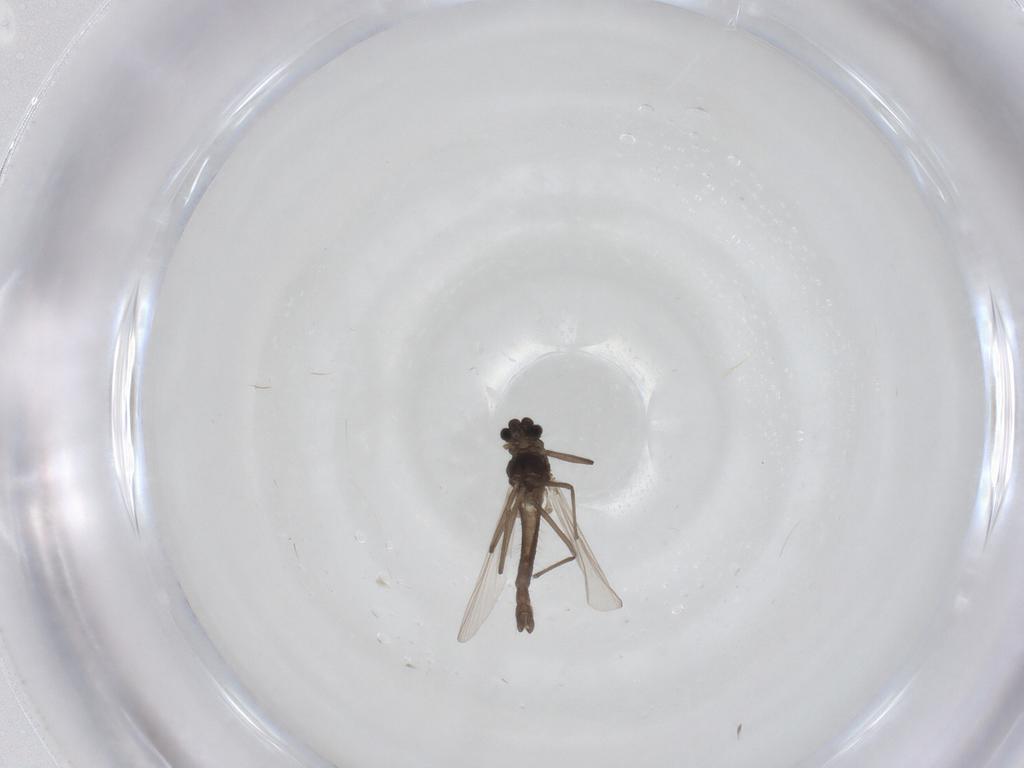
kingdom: Animalia
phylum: Arthropoda
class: Insecta
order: Diptera
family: Chironomidae
